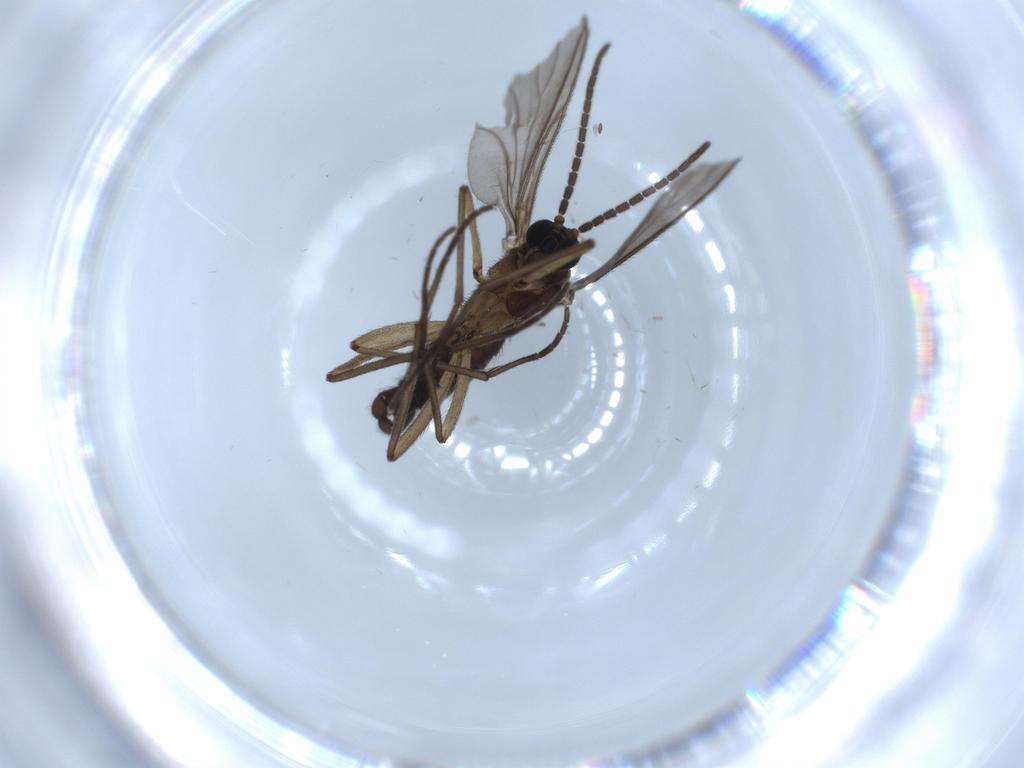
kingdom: Animalia
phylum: Arthropoda
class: Insecta
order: Diptera
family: Sciaridae
